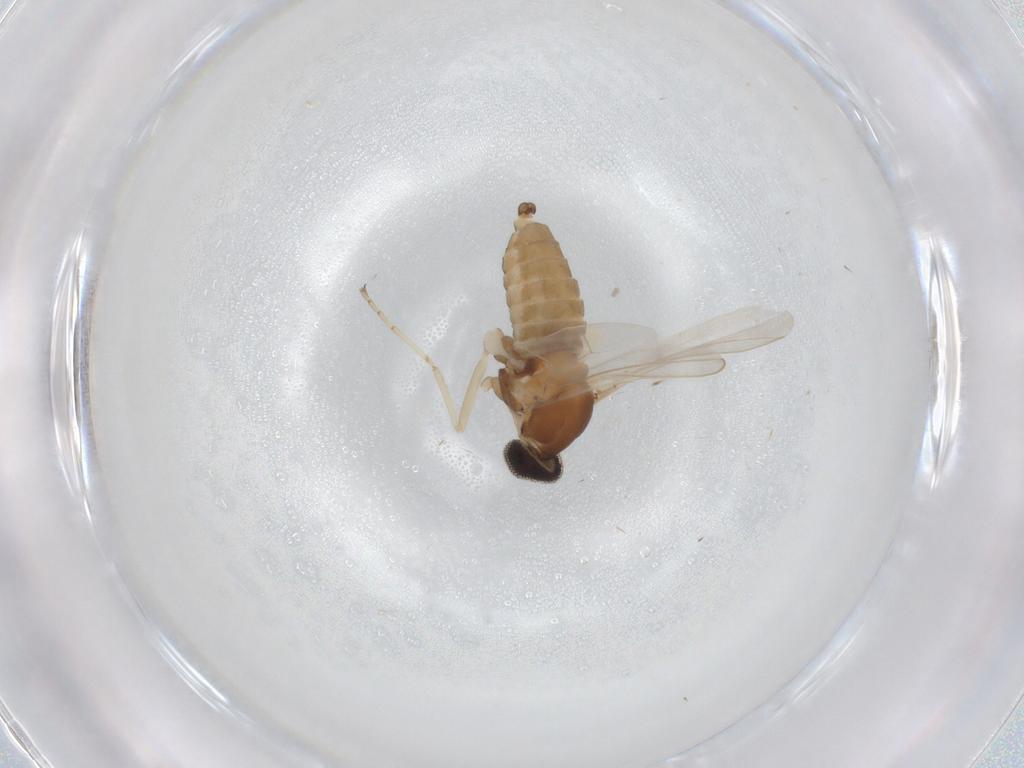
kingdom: Animalia
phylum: Arthropoda
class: Insecta
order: Diptera
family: Cecidomyiidae
